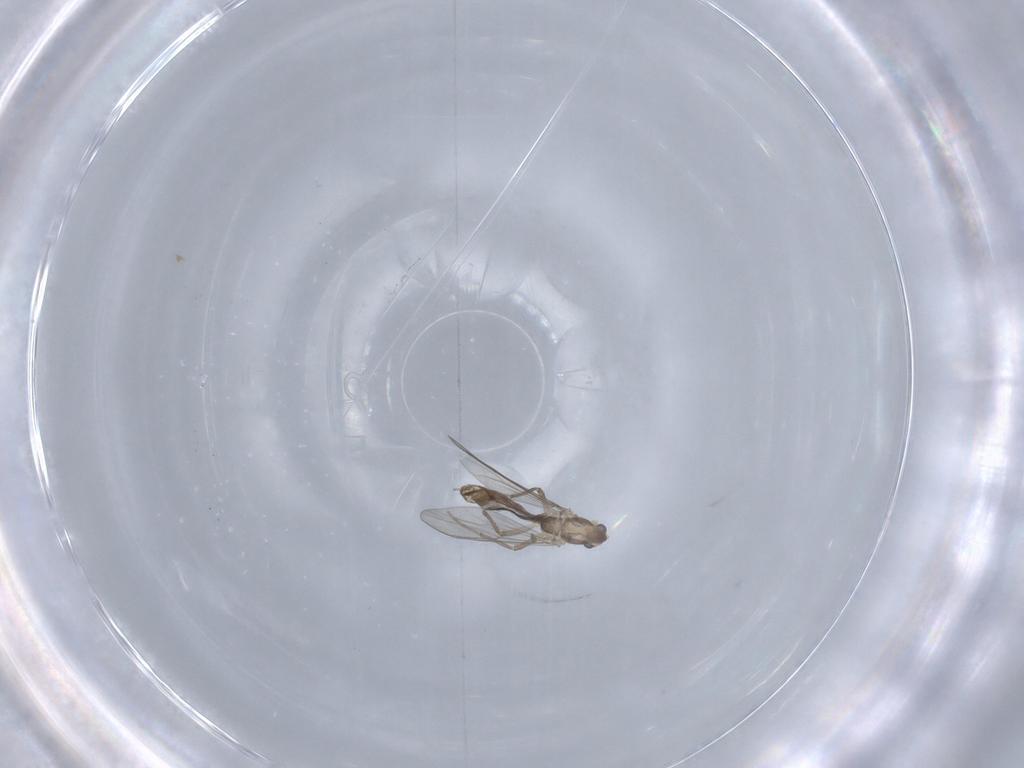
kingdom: Animalia
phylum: Arthropoda
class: Insecta
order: Diptera
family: Chironomidae
